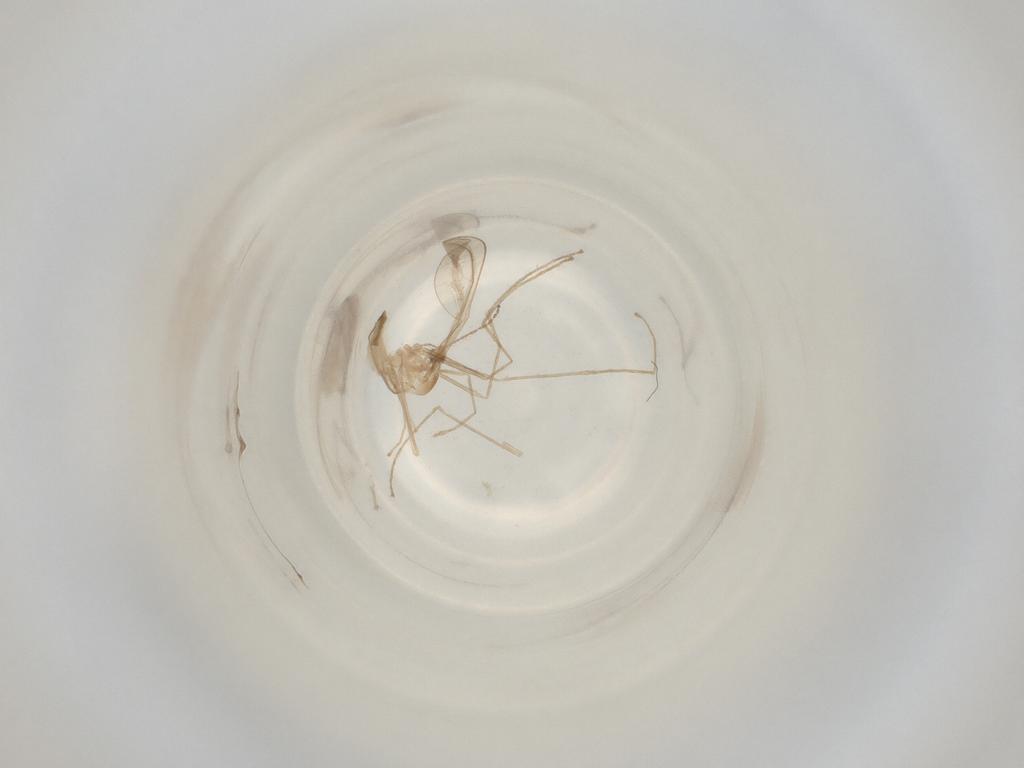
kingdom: Animalia
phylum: Arthropoda
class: Insecta
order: Diptera
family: Cecidomyiidae
